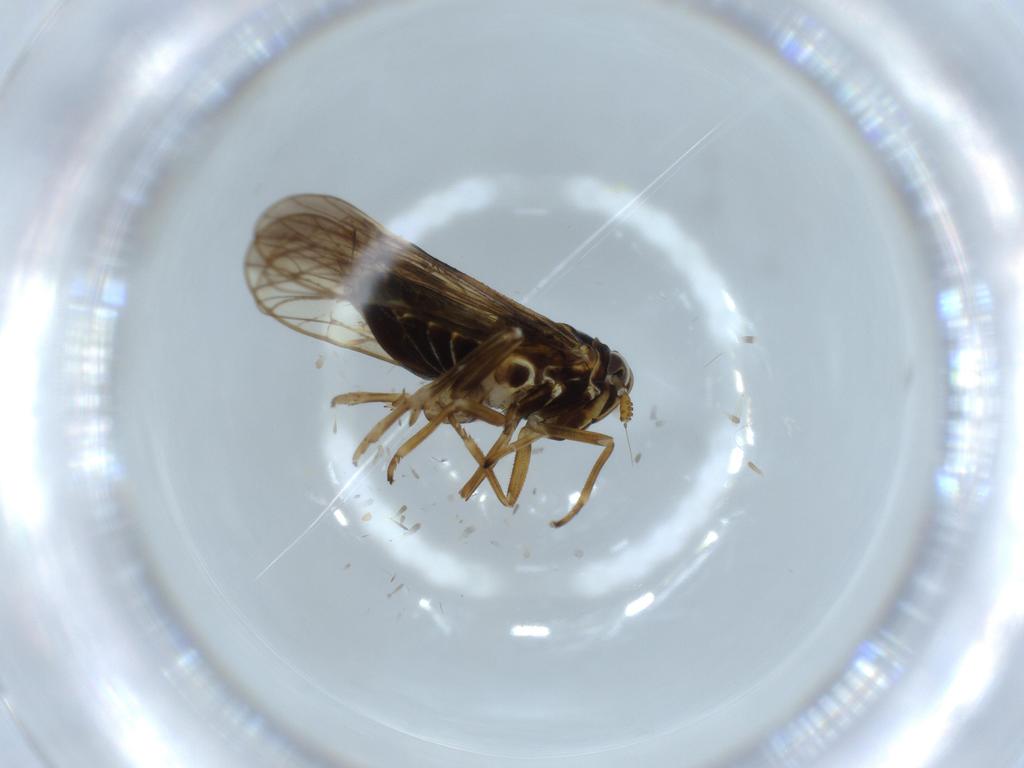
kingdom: Animalia
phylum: Arthropoda
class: Insecta
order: Hemiptera
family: Delphacidae
